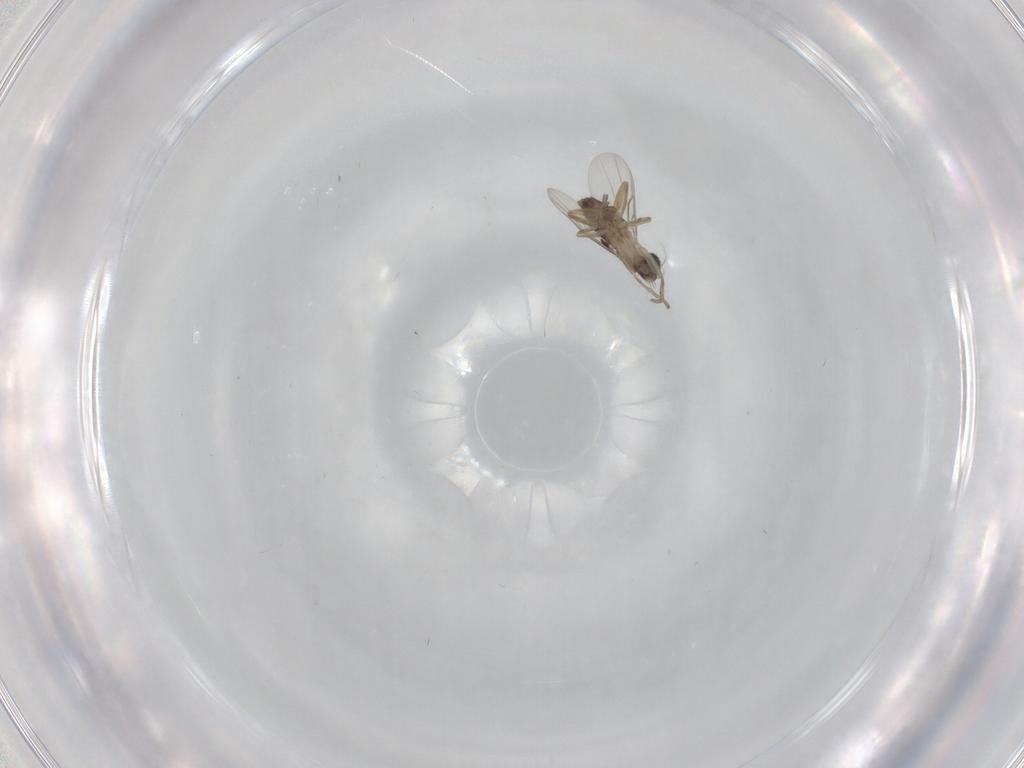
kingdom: Animalia
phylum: Arthropoda
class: Insecta
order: Diptera
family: Phoridae
